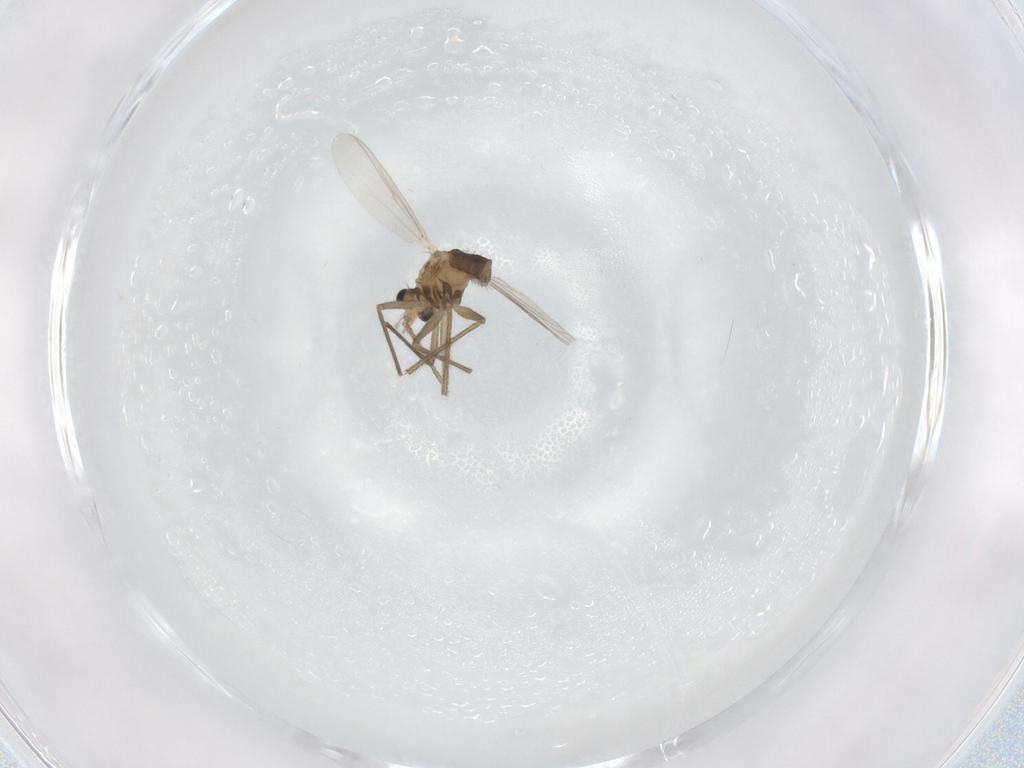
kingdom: Animalia
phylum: Arthropoda
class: Insecta
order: Diptera
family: Chironomidae
